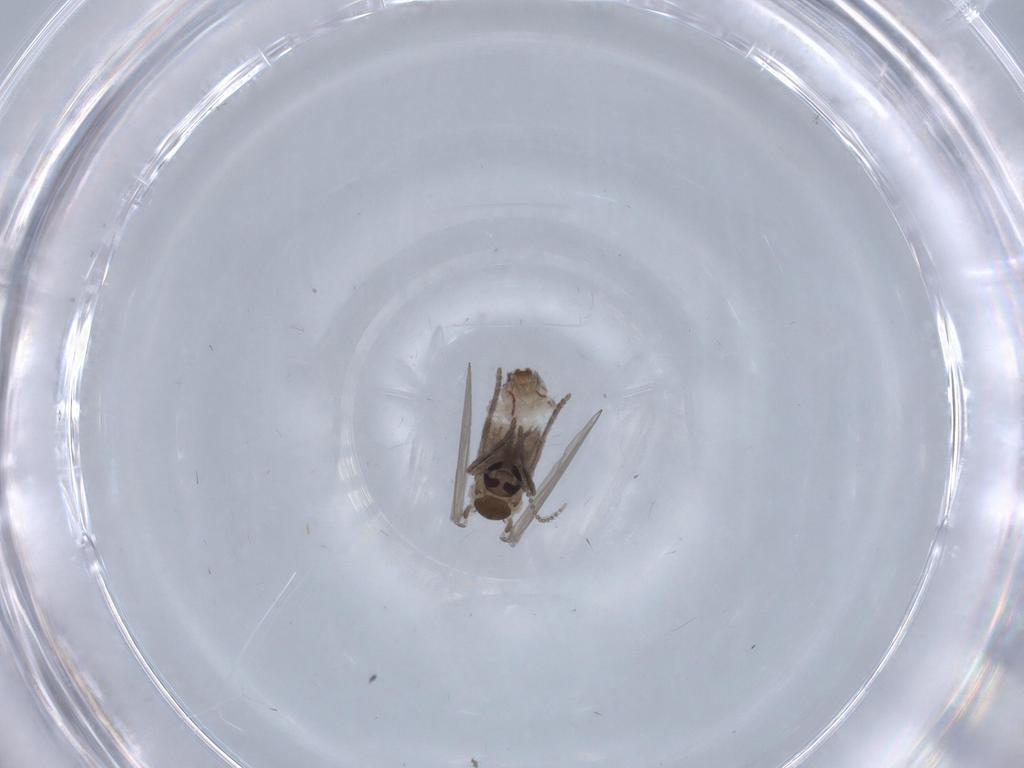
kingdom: Animalia
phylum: Arthropoda
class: Insecta
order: Diptera
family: Psychodidae
